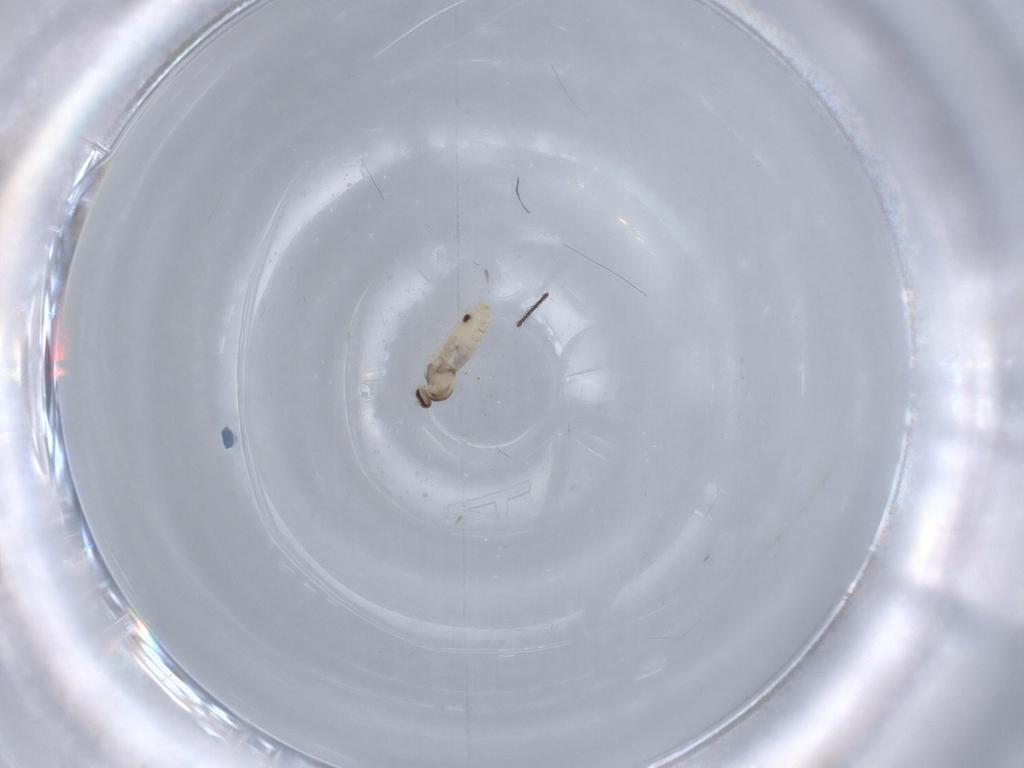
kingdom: Animalia
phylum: Arthropoda
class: Insecta
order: Diptera
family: Cecidomyiidae
